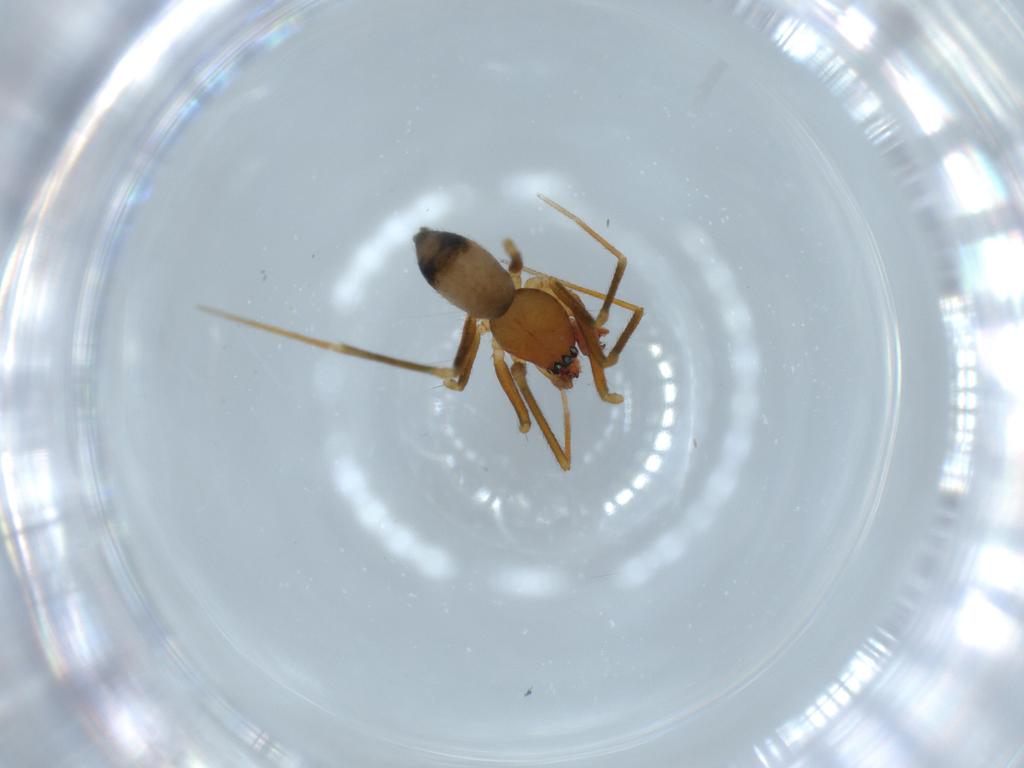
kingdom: Animalia
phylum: Arthropoda
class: Arachnida
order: Araneae
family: Linyphiidae
